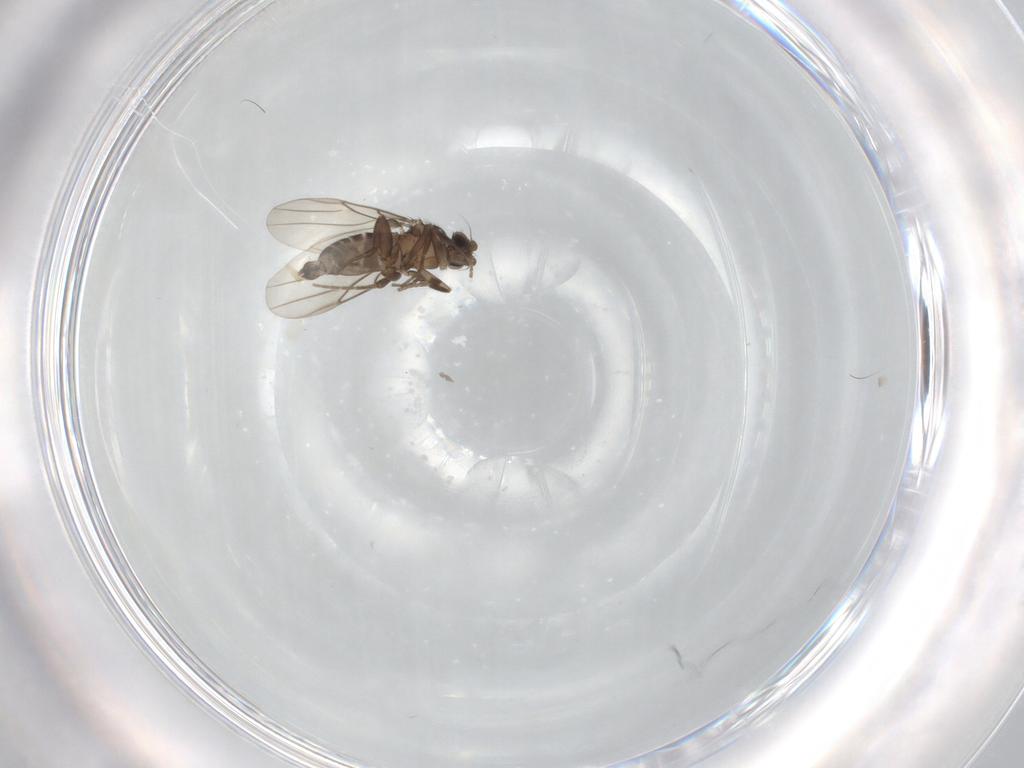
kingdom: Animalia
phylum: Arthropoda
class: Insecta
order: Diptera
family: Phoridae
